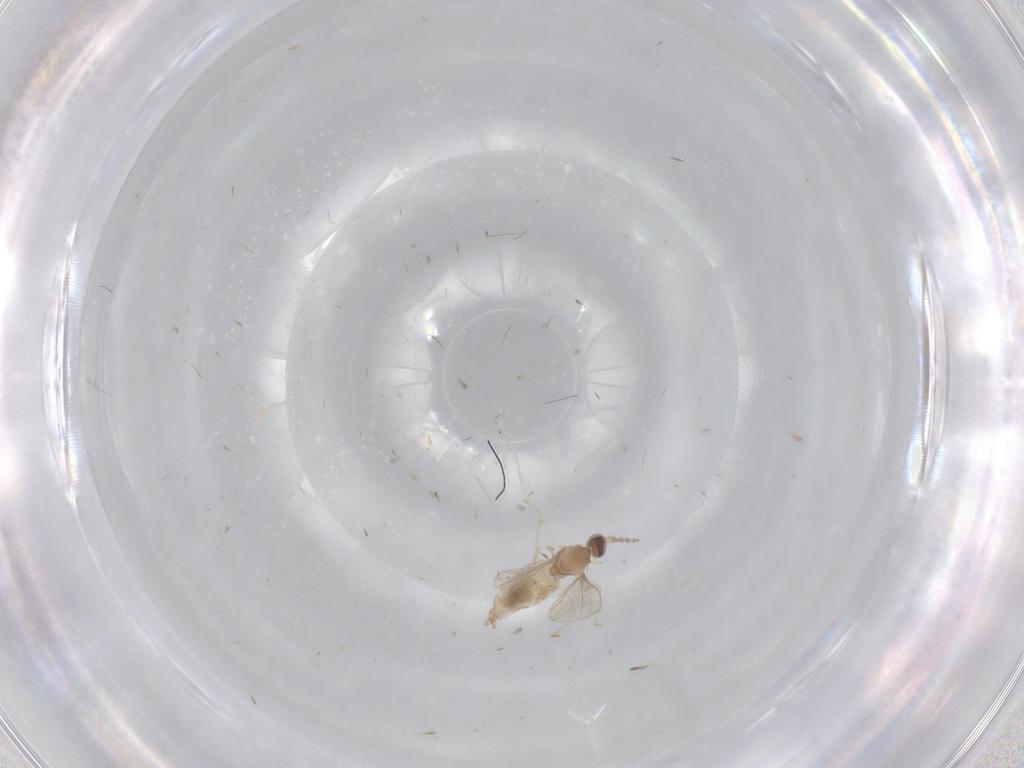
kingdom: Animalia
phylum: Arthropoda
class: Insecta
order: Diptera
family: Cecidomyiidae
